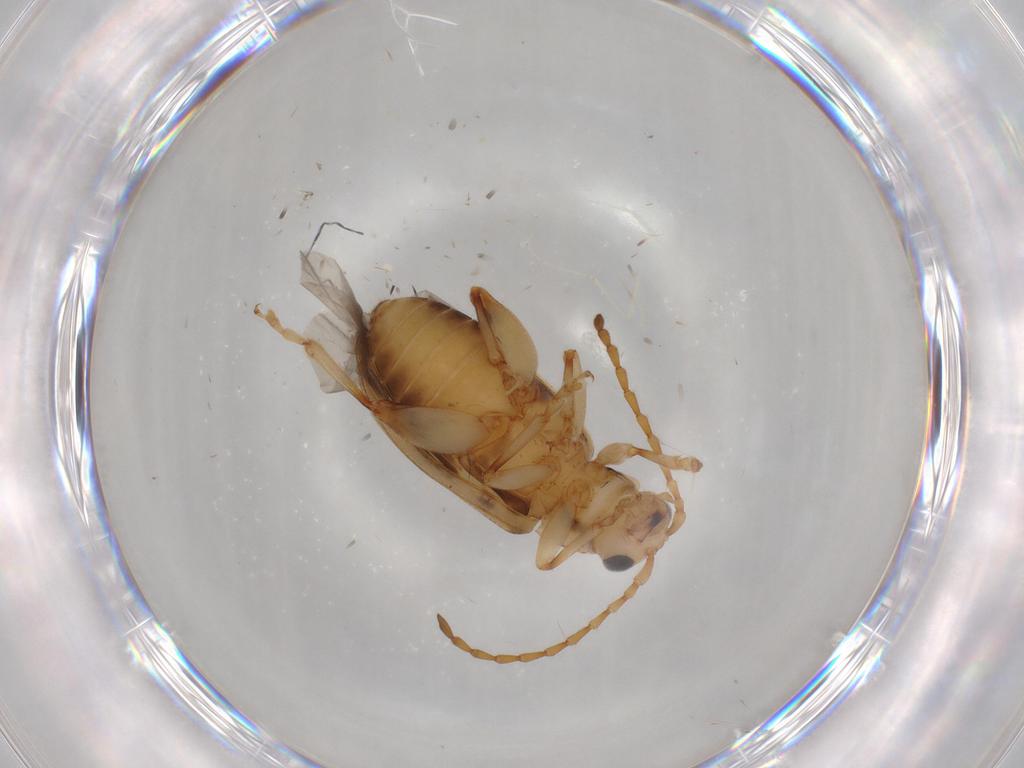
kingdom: Animalia
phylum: Arthropoda
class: Insecta
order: Coleoptera
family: Chrysomelidae
